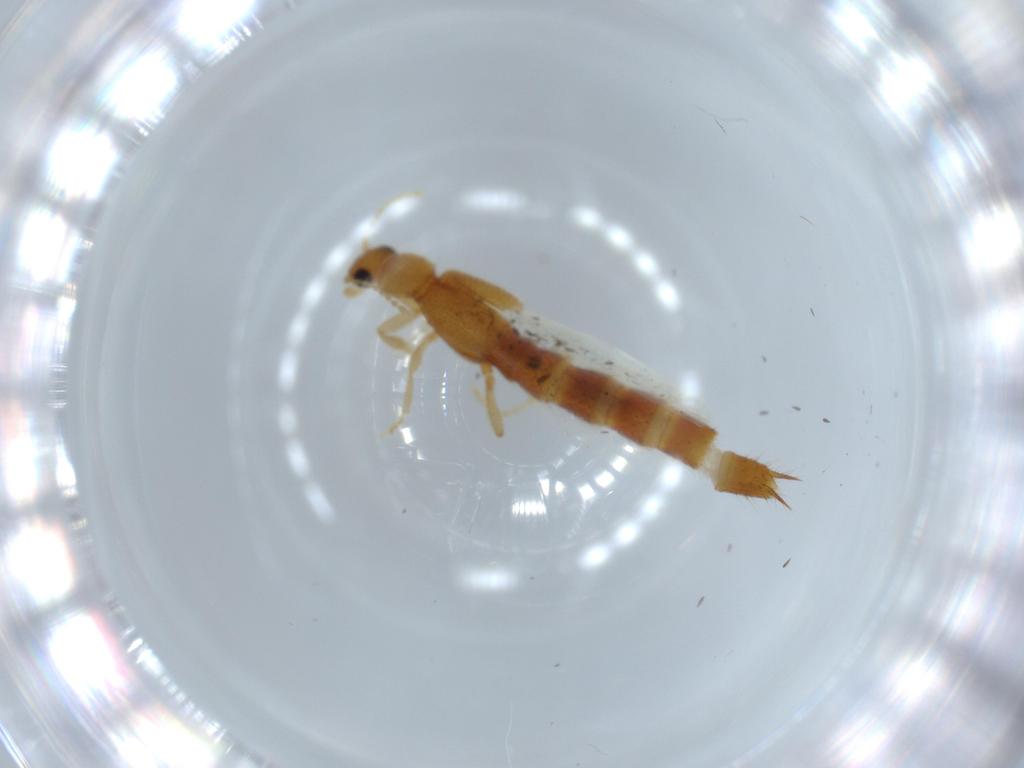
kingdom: Animalia
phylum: Arthropoda
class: Insecta
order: Coleoptera
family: Staphylinidae
